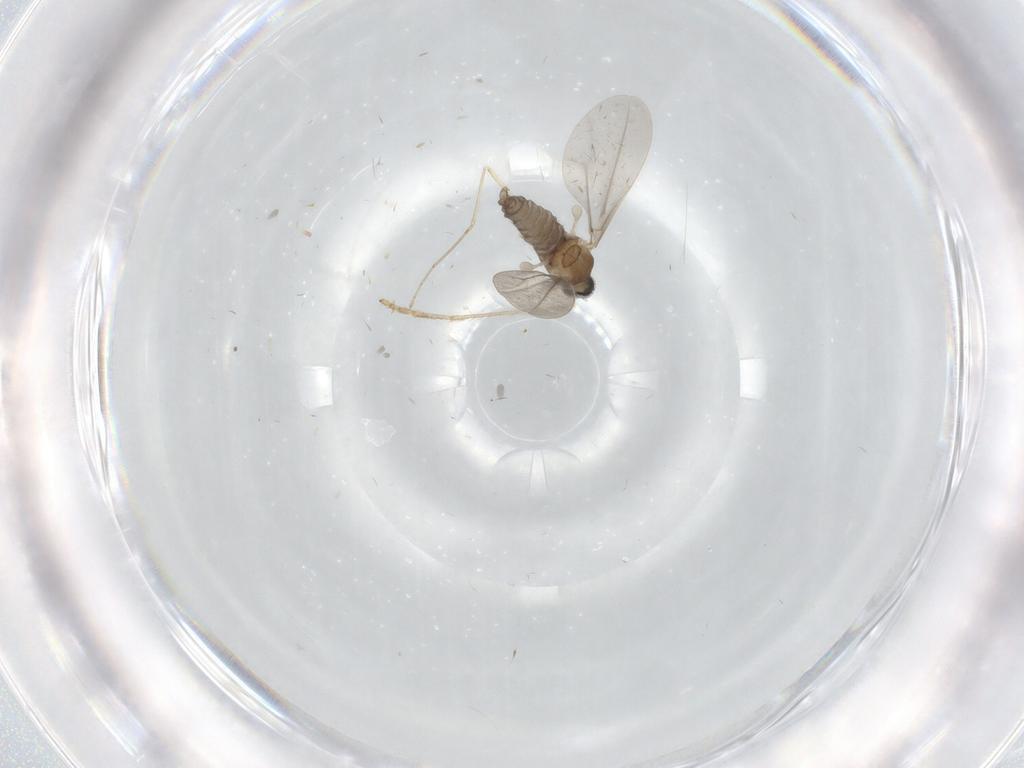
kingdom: Animalia
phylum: Arthropoda
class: Insecta
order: Diptera
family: Limoniidae
